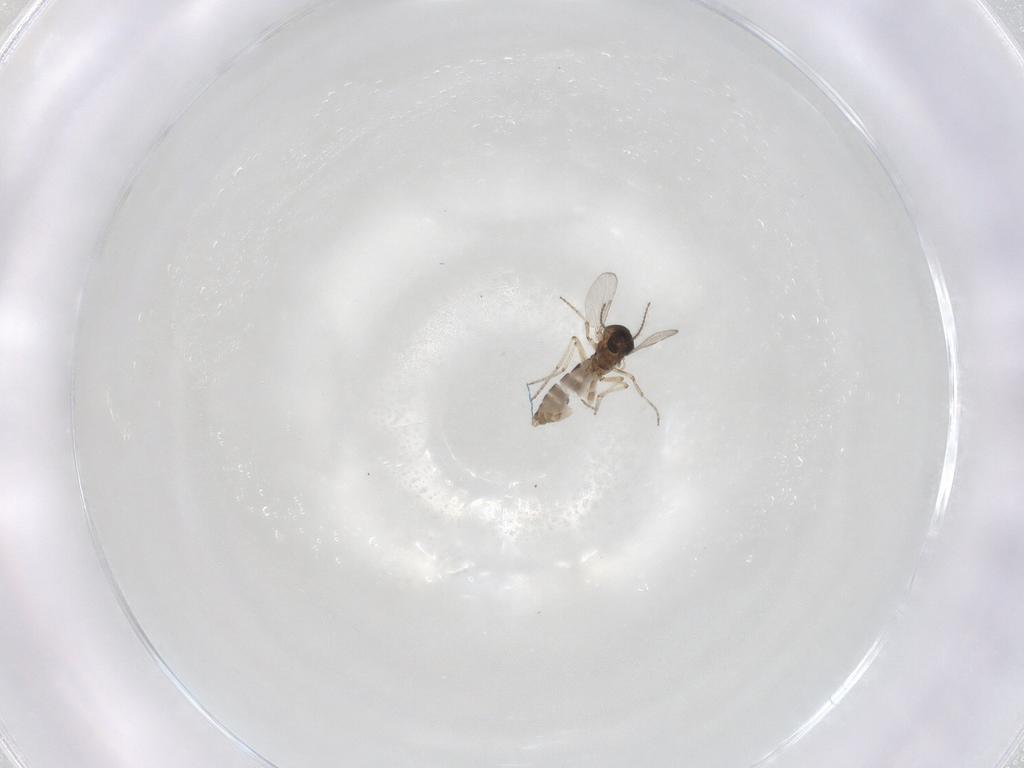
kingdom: Animalia
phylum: Arthropoda
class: Insecta
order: Diptera
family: Ceratopogonidae
